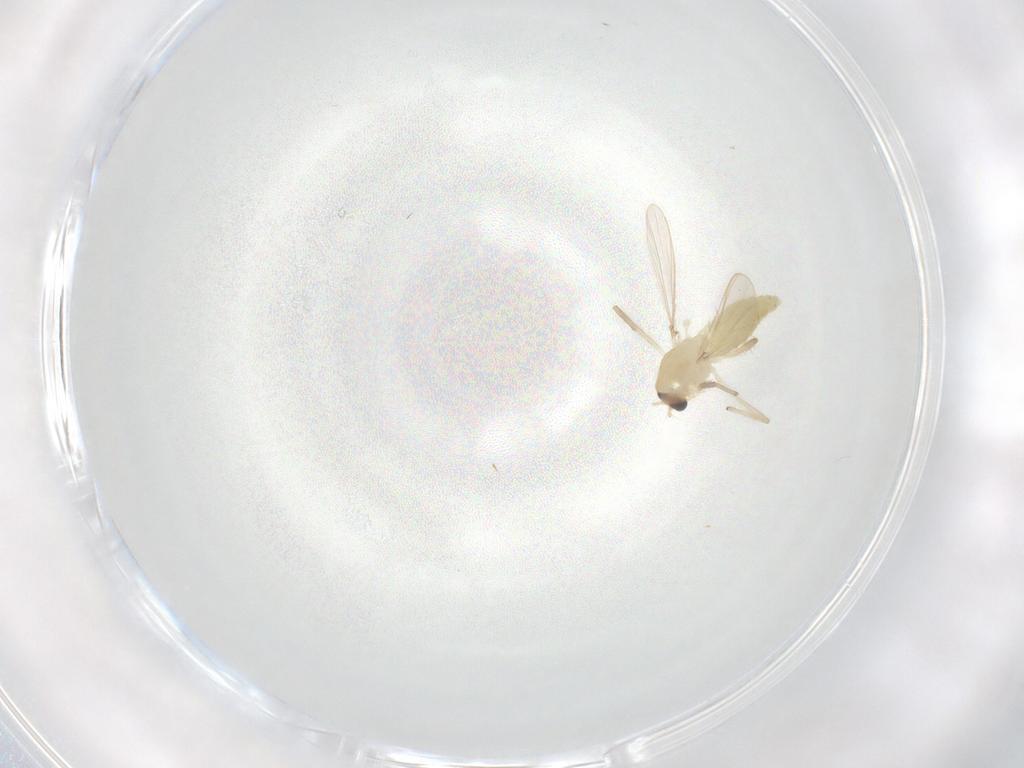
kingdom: Animalia
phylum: Arthropoda
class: Insecta
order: Diptera
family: Chironomidae
